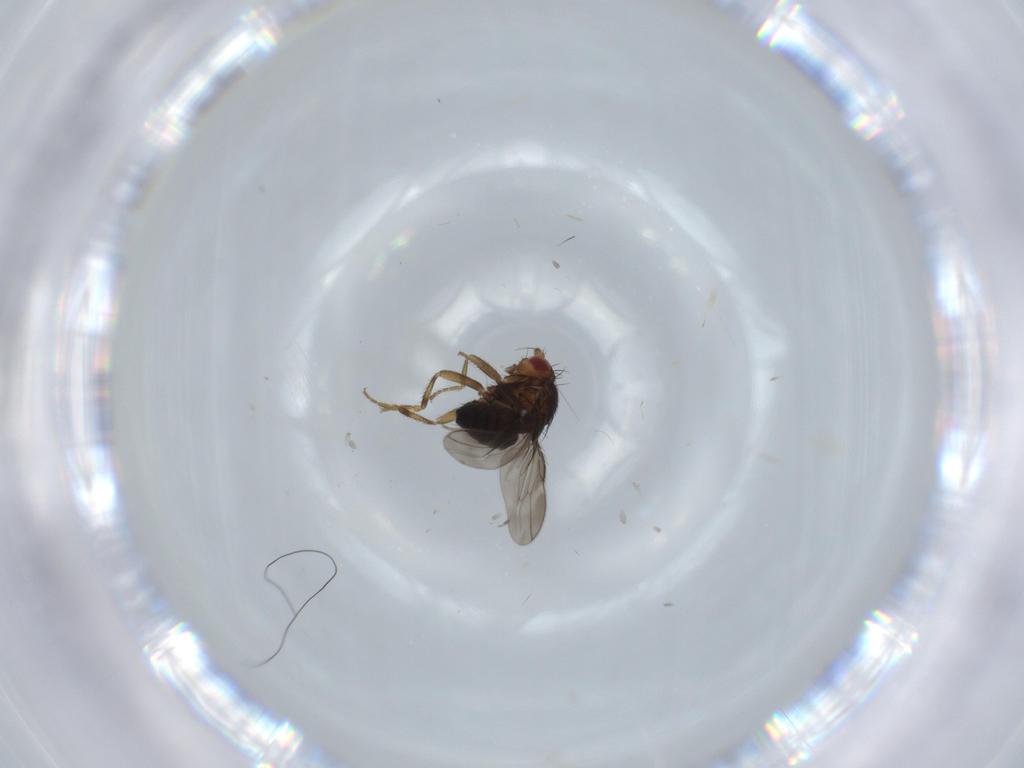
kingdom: Animalia
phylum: Arthropoda
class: Insecta
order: Diptera
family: Sphaeroceridae
